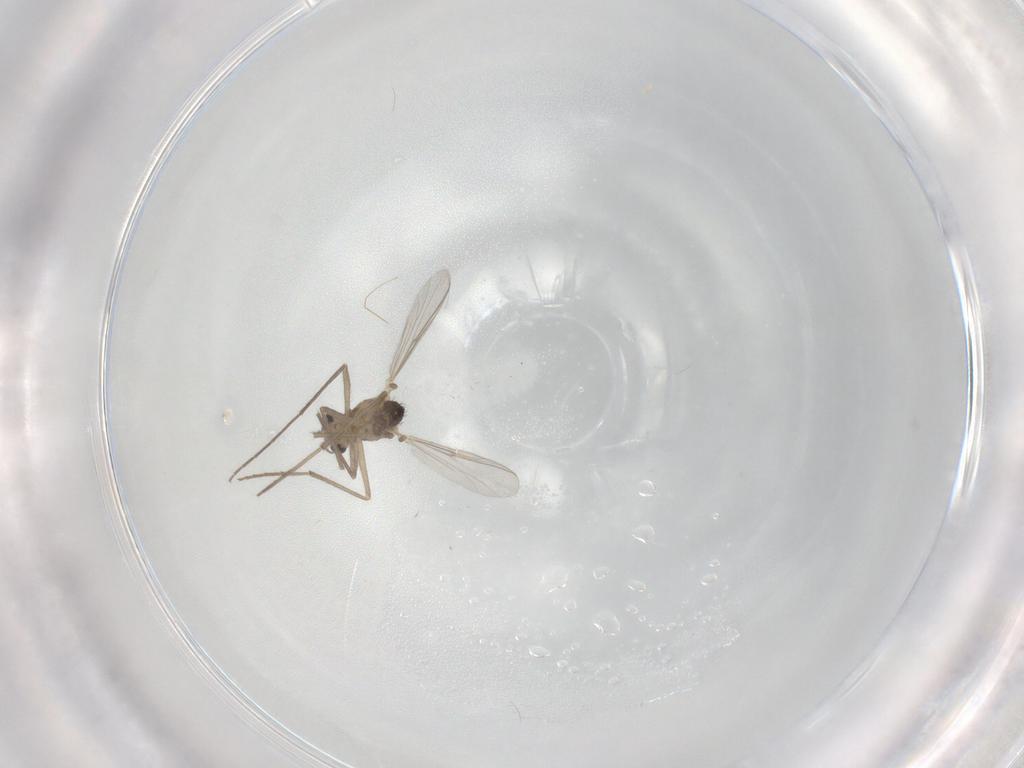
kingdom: Animalia
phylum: Arthropoda
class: Insecta
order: Diptera
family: Chironomidae
